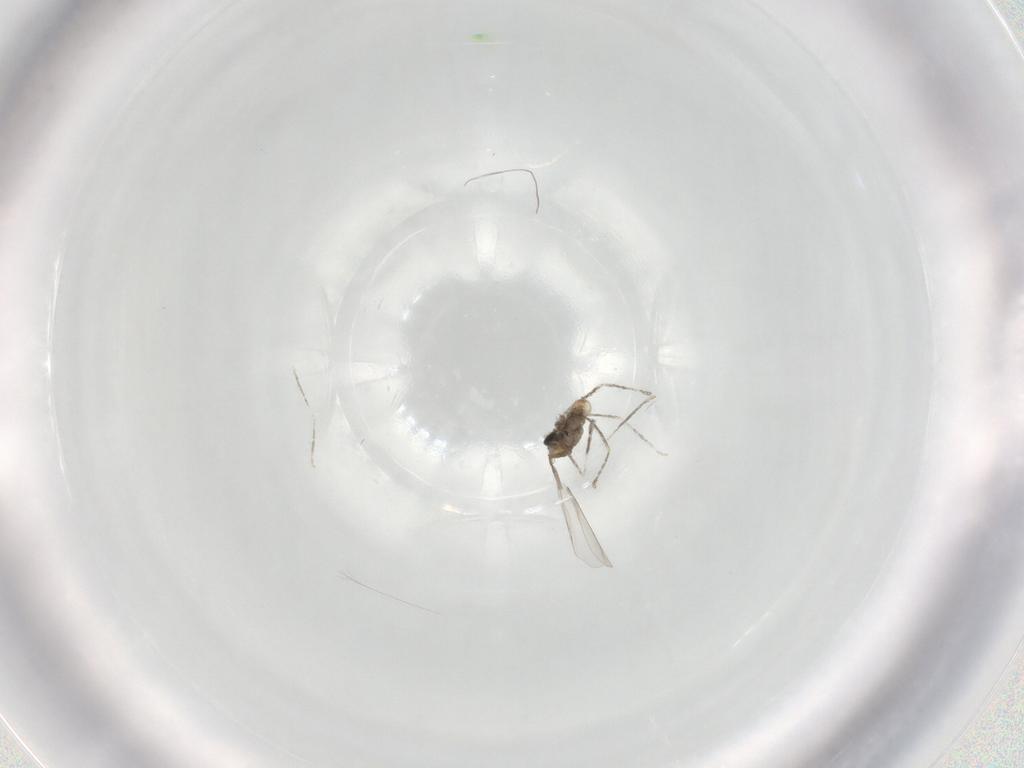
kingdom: Animalia
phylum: Arthropoda
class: Insecta
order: Diptera
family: Cecidomyiidae
